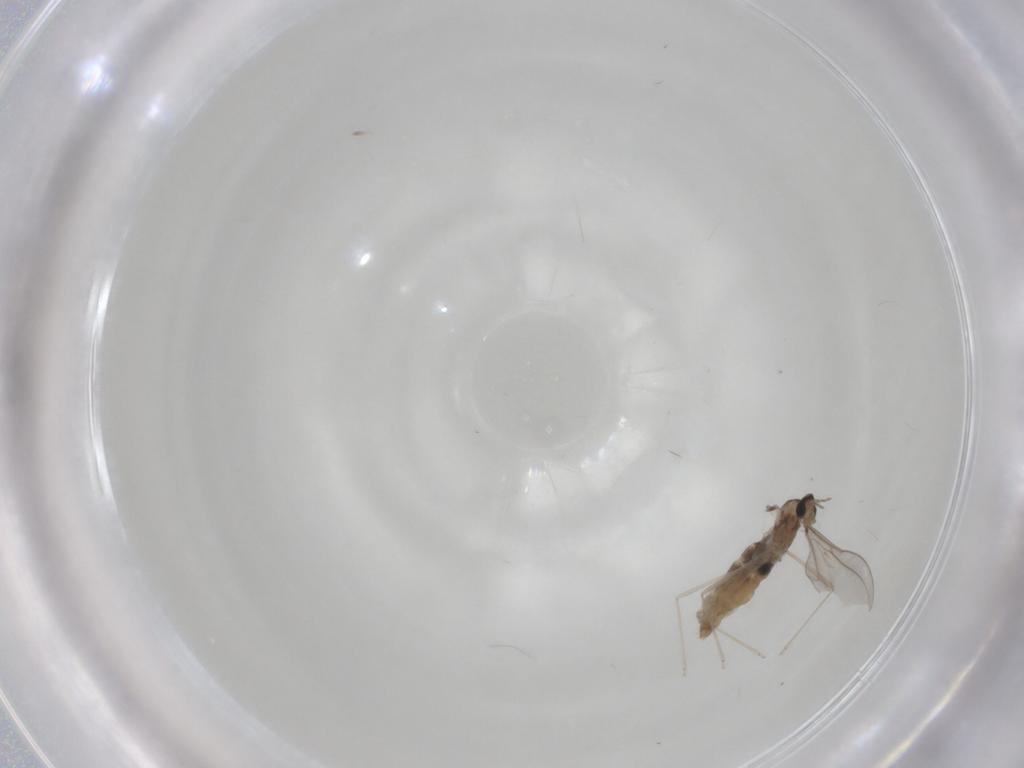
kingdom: Animalia
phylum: Arthropoda
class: Insecta
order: Diptera
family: Cecidomyiidae
